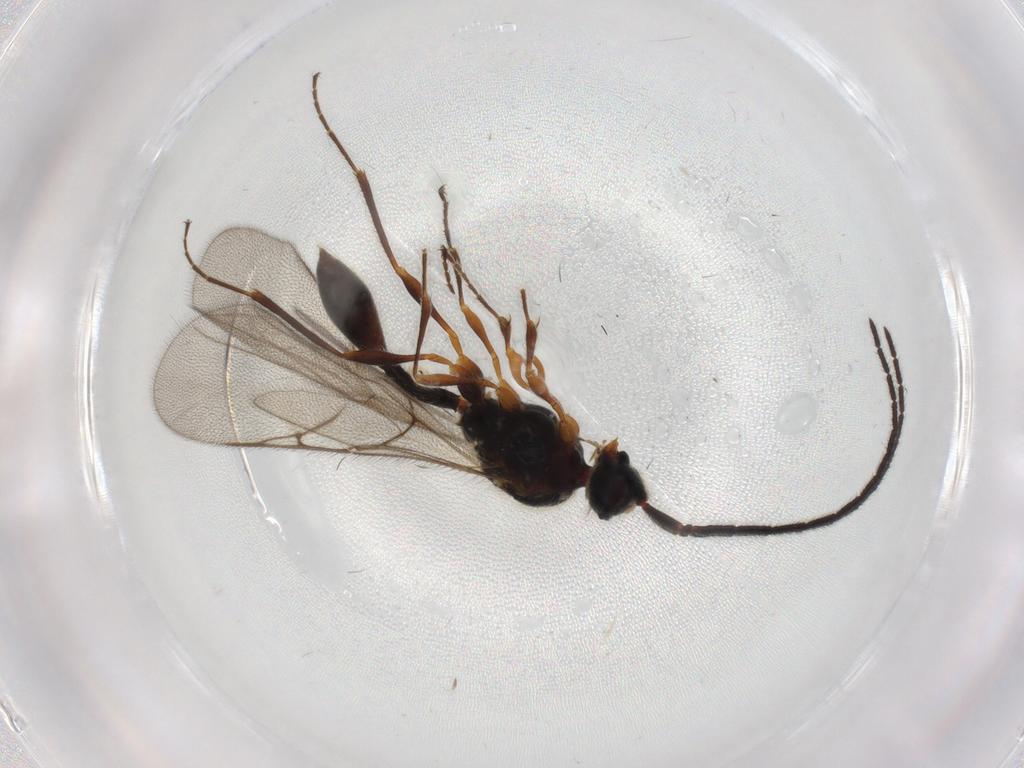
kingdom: Animalia
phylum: Arthropoda
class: Insecta
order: Hymenoptera
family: Diapriidae
